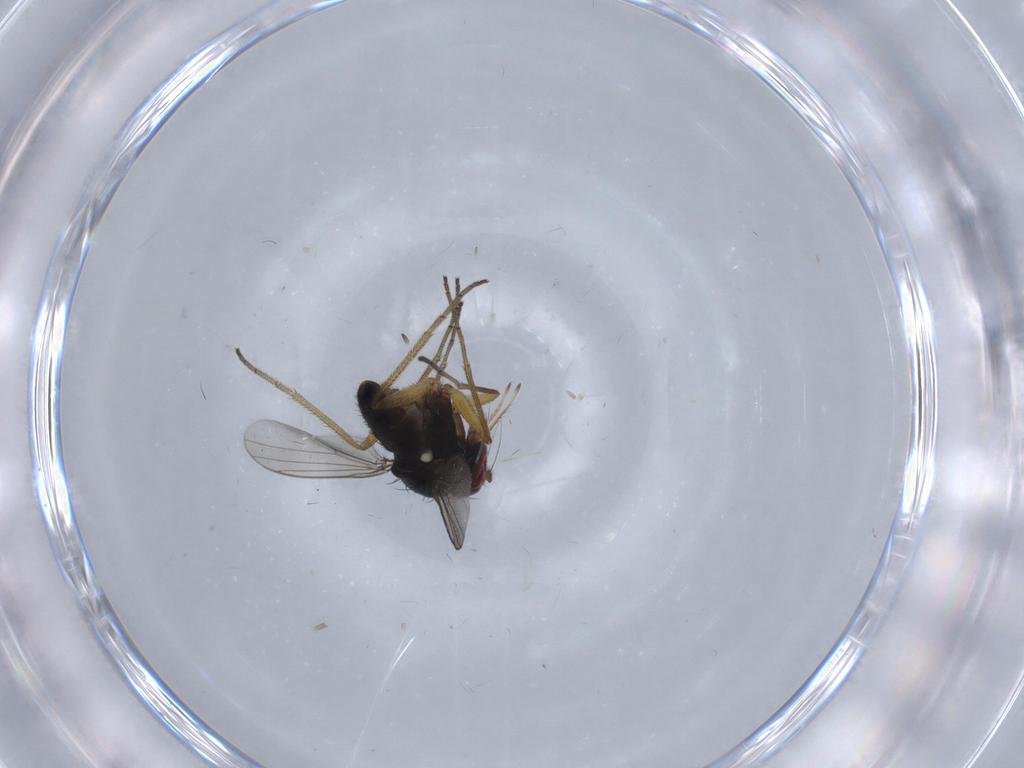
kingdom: Animalia
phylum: Arthropoda
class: Insecta
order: Diptera
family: Dolichopodidae
